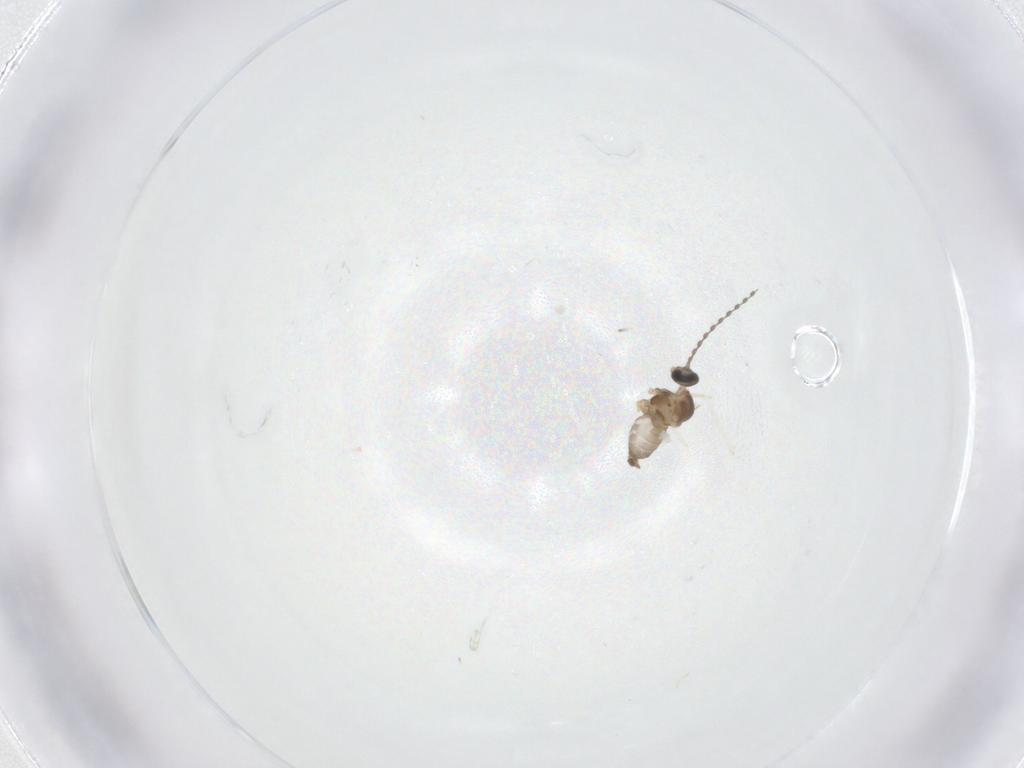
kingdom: Animalia
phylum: Arthropoda
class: Insecta
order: Diptera
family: Cecidomyiidae
